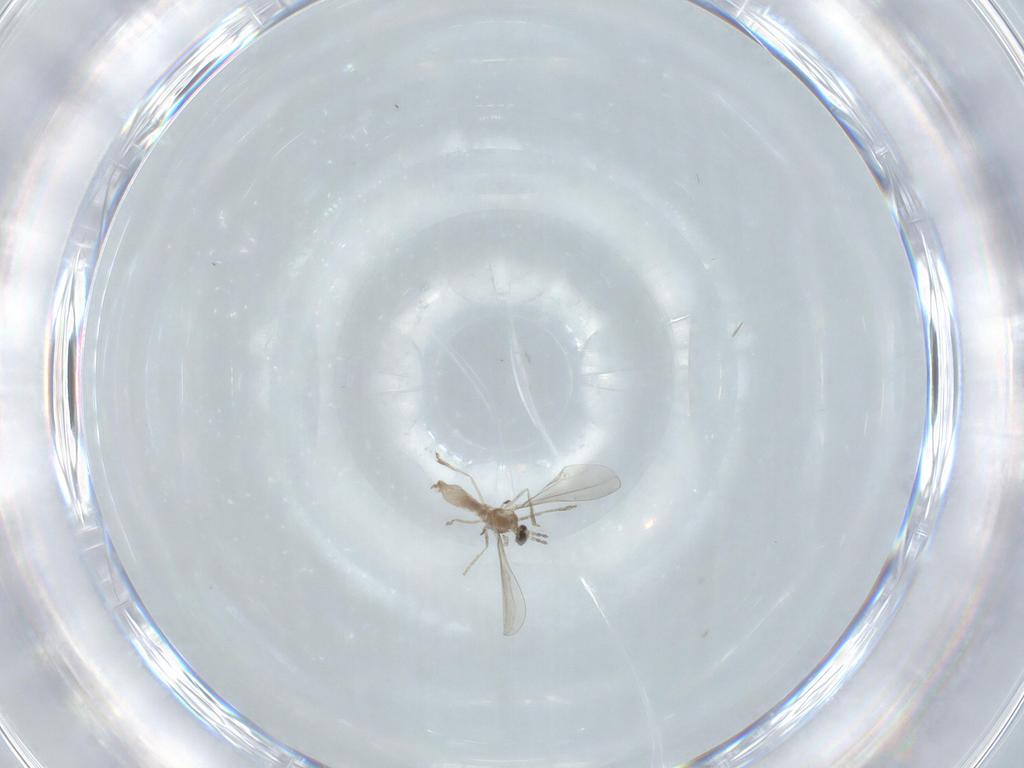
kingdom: Animalia
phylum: Arthropoda
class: Insecta
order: Diptera
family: Cecidomyiidae
